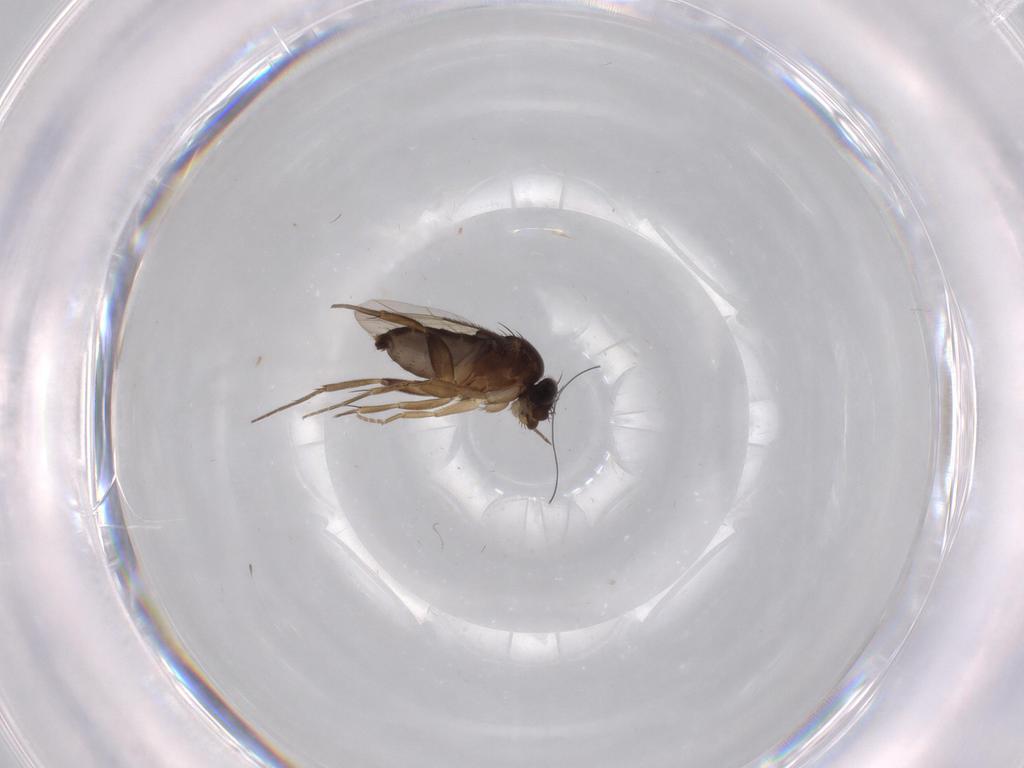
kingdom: Animalia
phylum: Arthropoda
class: Insecta
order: Diptera
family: Phoridae
